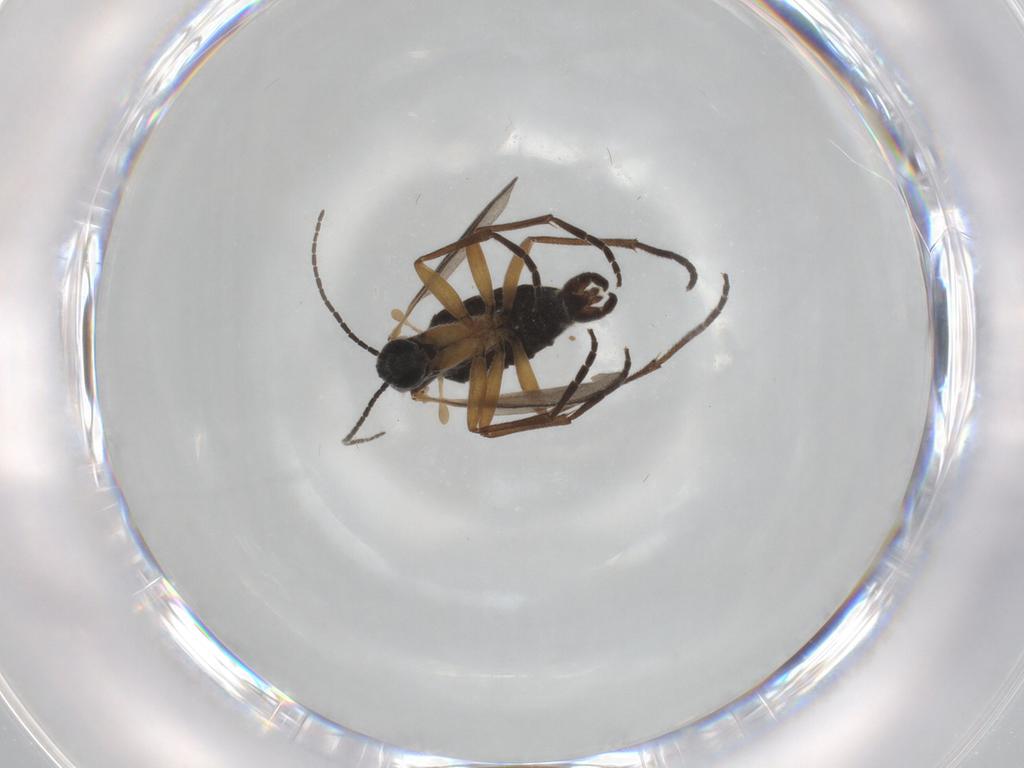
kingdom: Animalia
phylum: Arthropoda
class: Insecta
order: Diptera
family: Sciaridae
